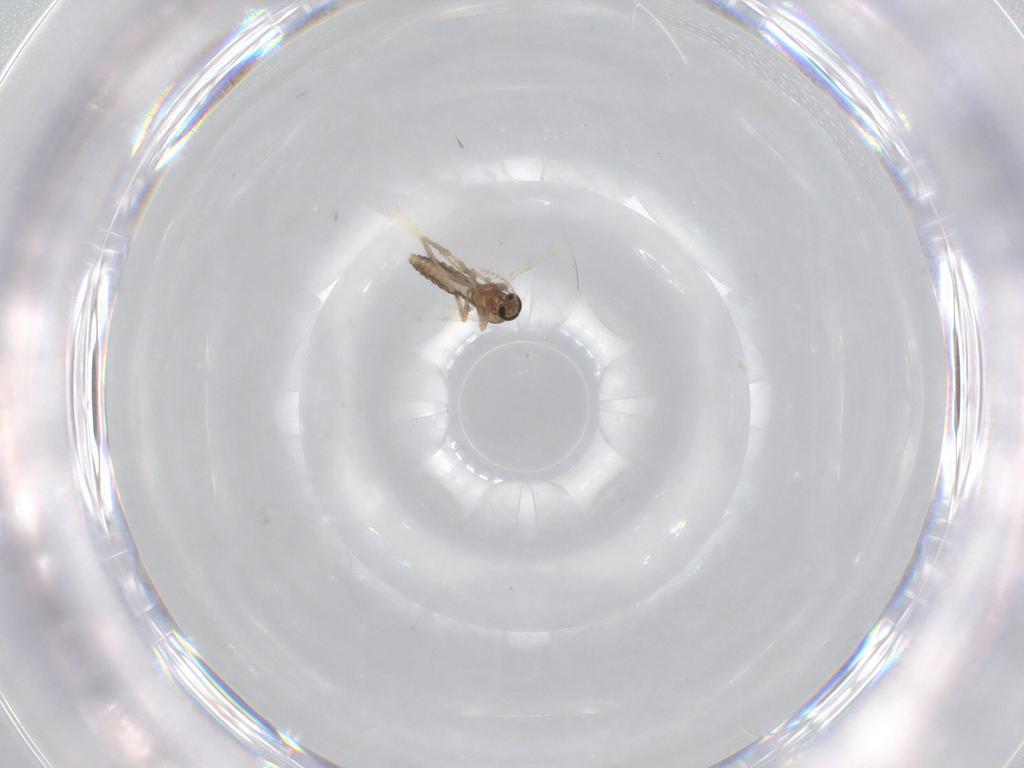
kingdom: Animalia
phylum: Arthropoda
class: Insecta
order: Diptera
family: Ceratopogonidae
